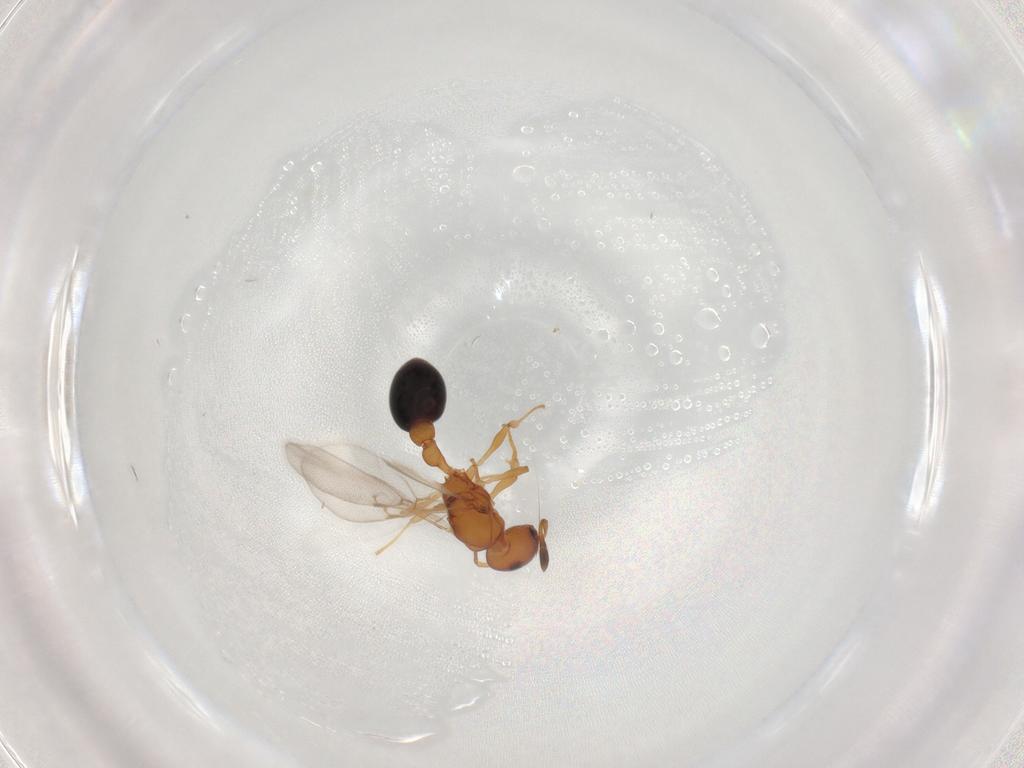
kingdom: Animalia
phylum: Arthropoda
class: Insecta
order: Hymenoptera
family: Formicidae
